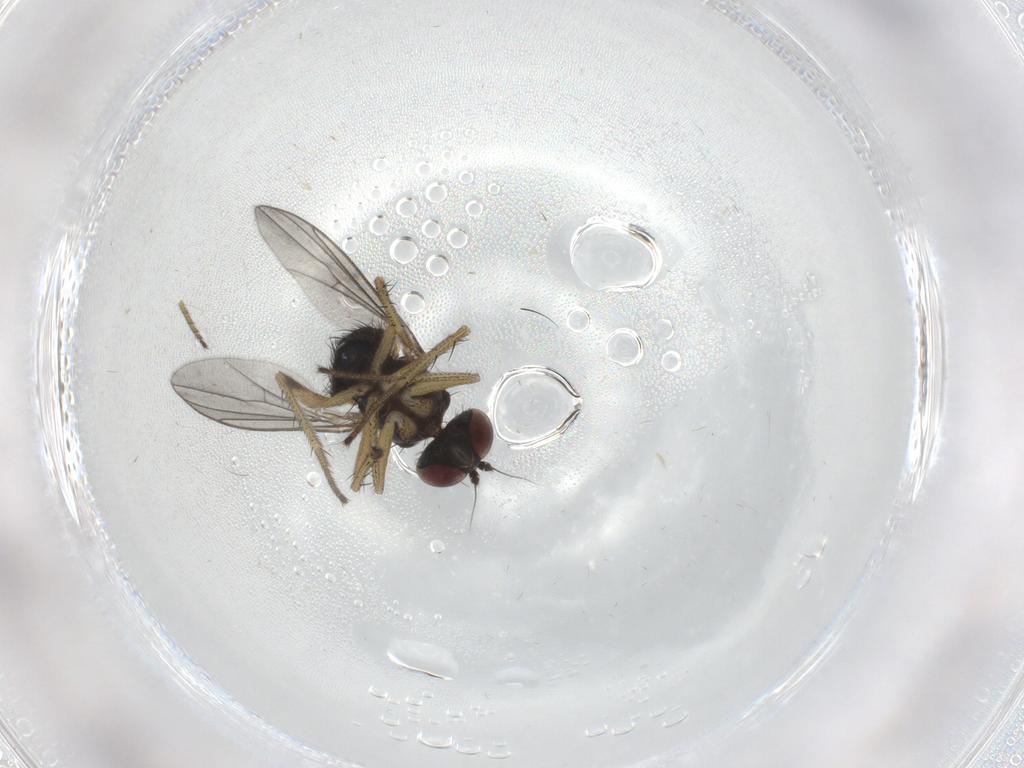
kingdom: Animalia
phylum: Arthropoda
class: Insecta
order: Diptera
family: Dolichopodidae
